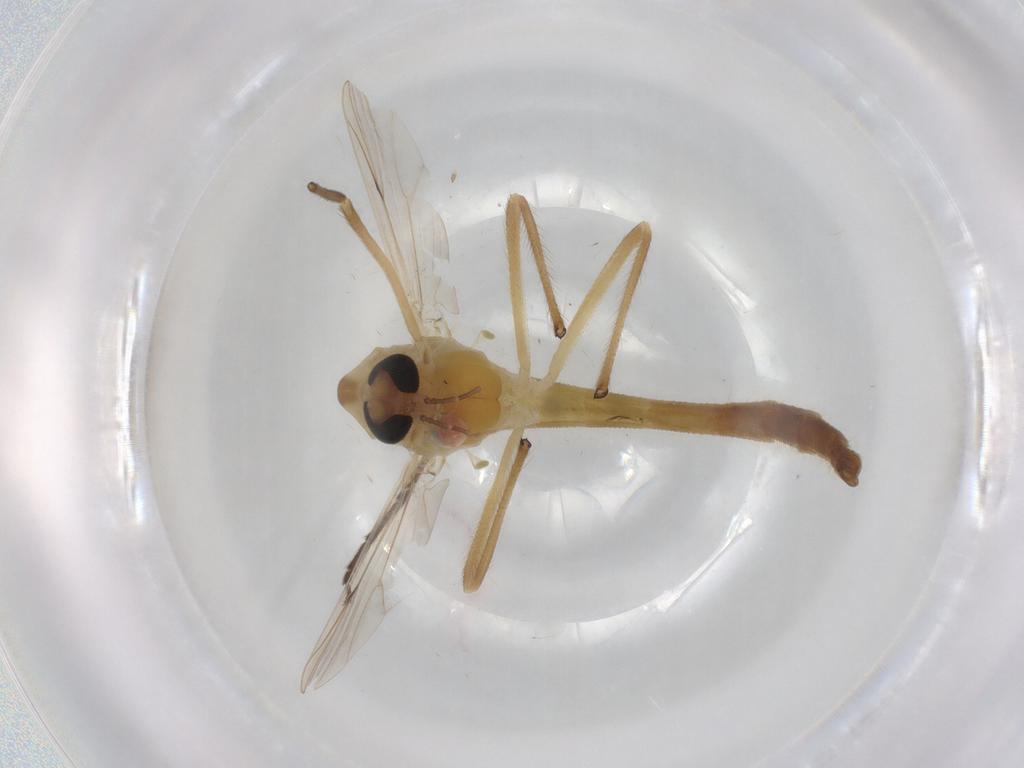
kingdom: Animalia
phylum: Arthropoda
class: Insecta
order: Diptera
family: Chironomidae
